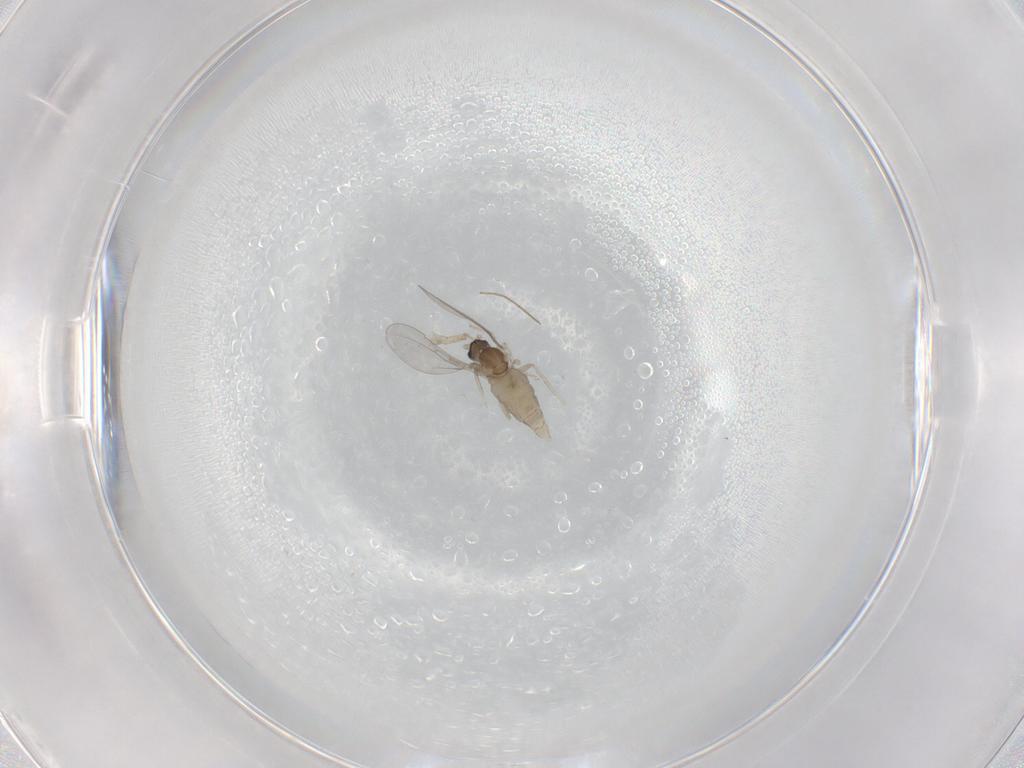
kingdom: Animalia
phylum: Arthropoda
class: Insecta
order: Diptera
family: Cecidomyiidae
